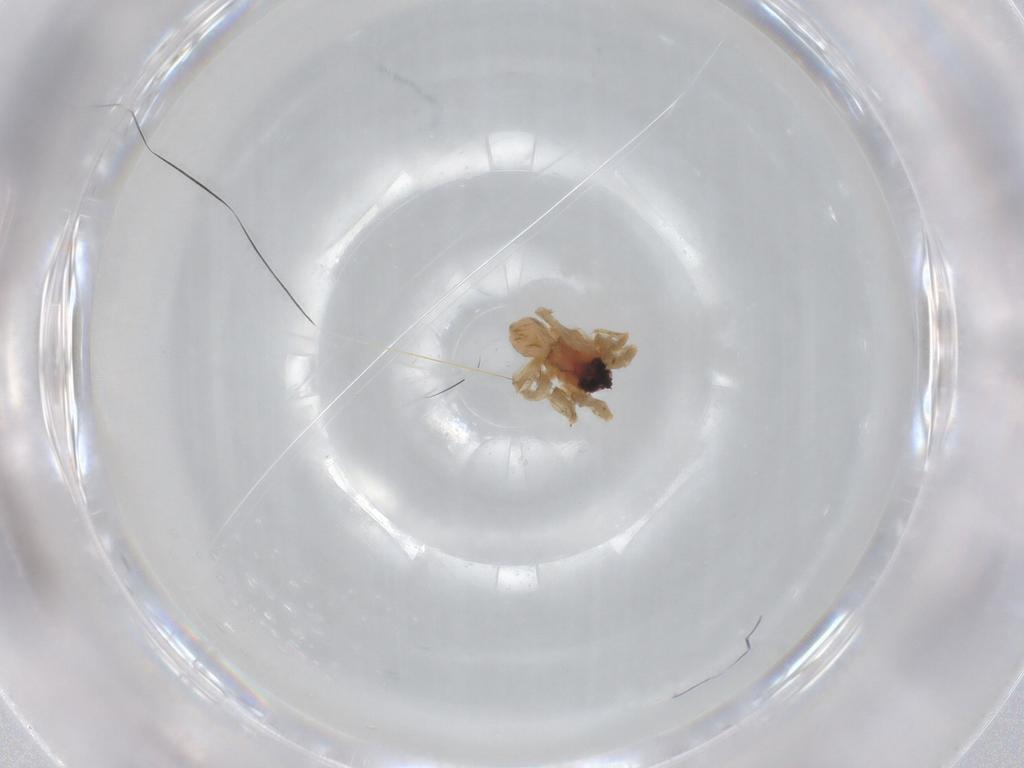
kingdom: Animalia
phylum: Arthropoda
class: Arachnida
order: Araneae
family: Lycosidae
